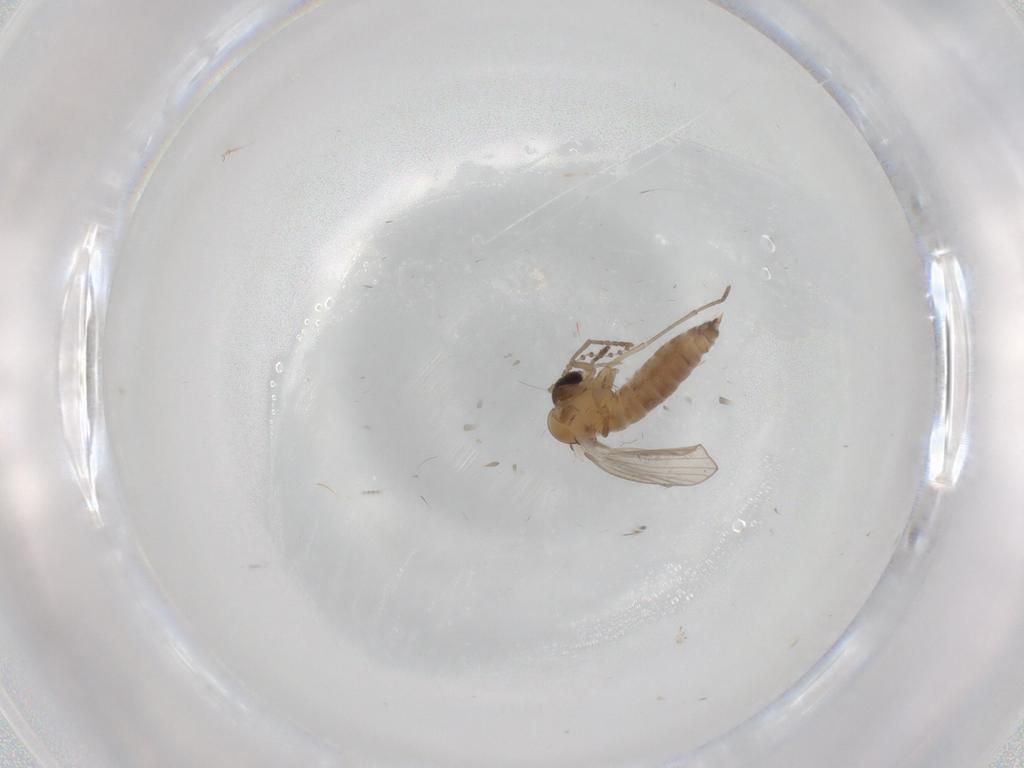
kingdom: Animalia
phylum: Arthropoda
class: Insecta
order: Diptera
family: Psychodidae
